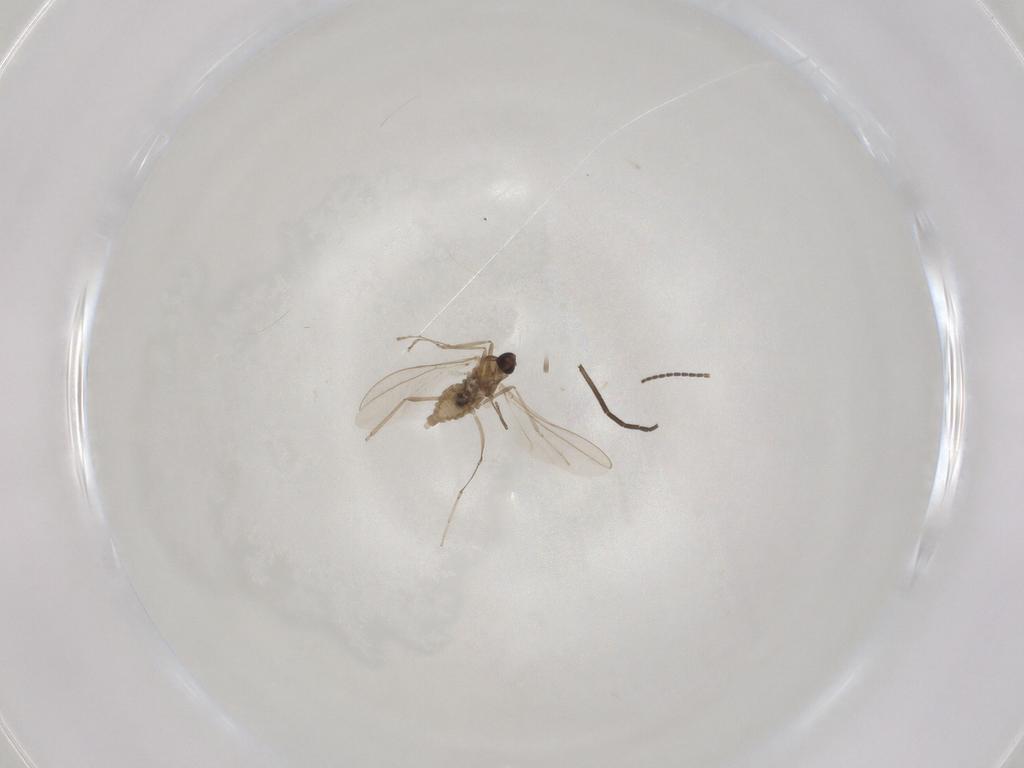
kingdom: Animalia
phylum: Arthropoda
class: Insecta
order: Diptera
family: Cecidomyiidae
